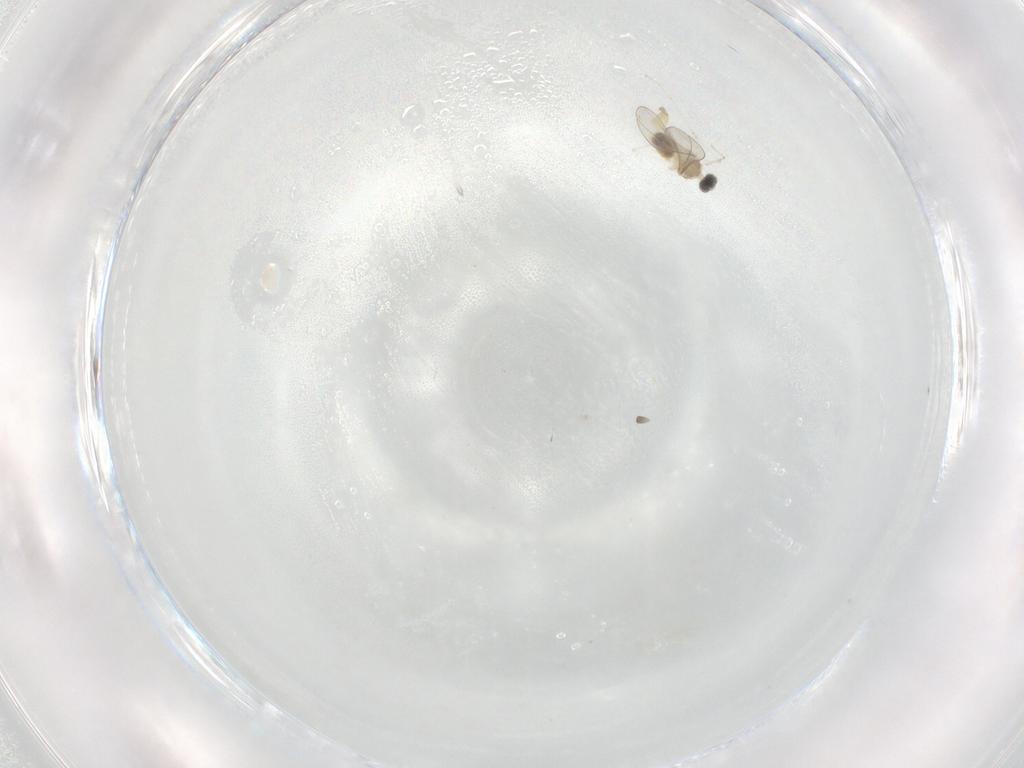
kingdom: Animalia
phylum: Arthropoda
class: Insecta
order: Diptera
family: Cecidomyiidae
